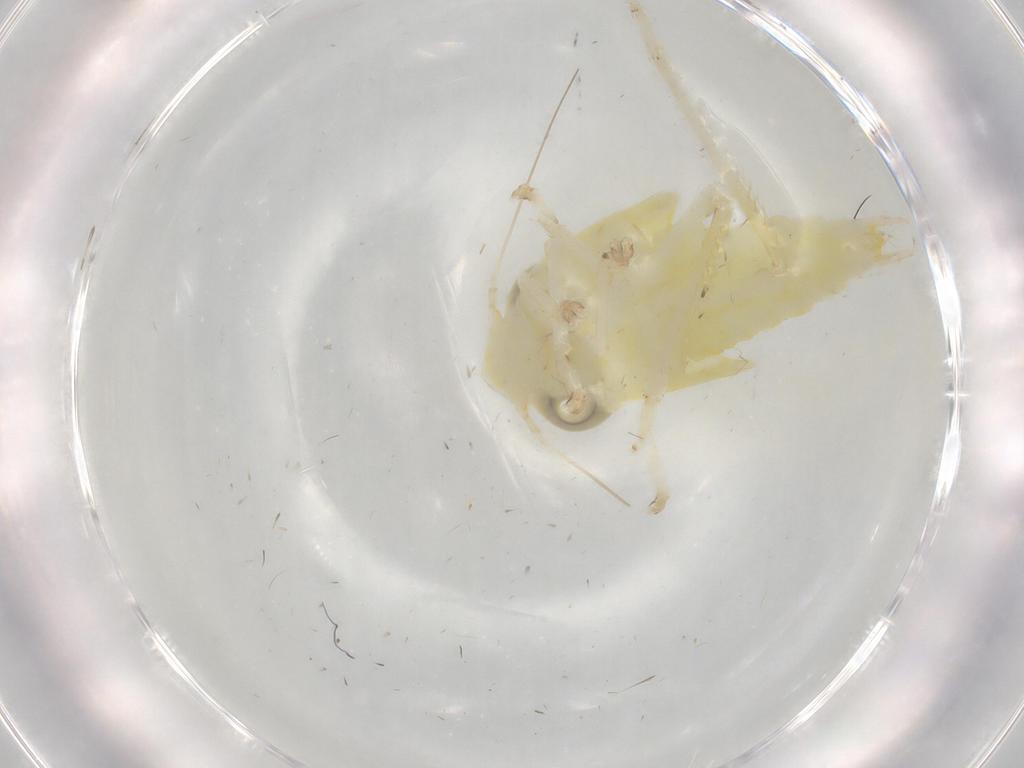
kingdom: Animalia
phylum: Arthropoda
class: Insecta
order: Hemiptera
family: Cicadellidae
